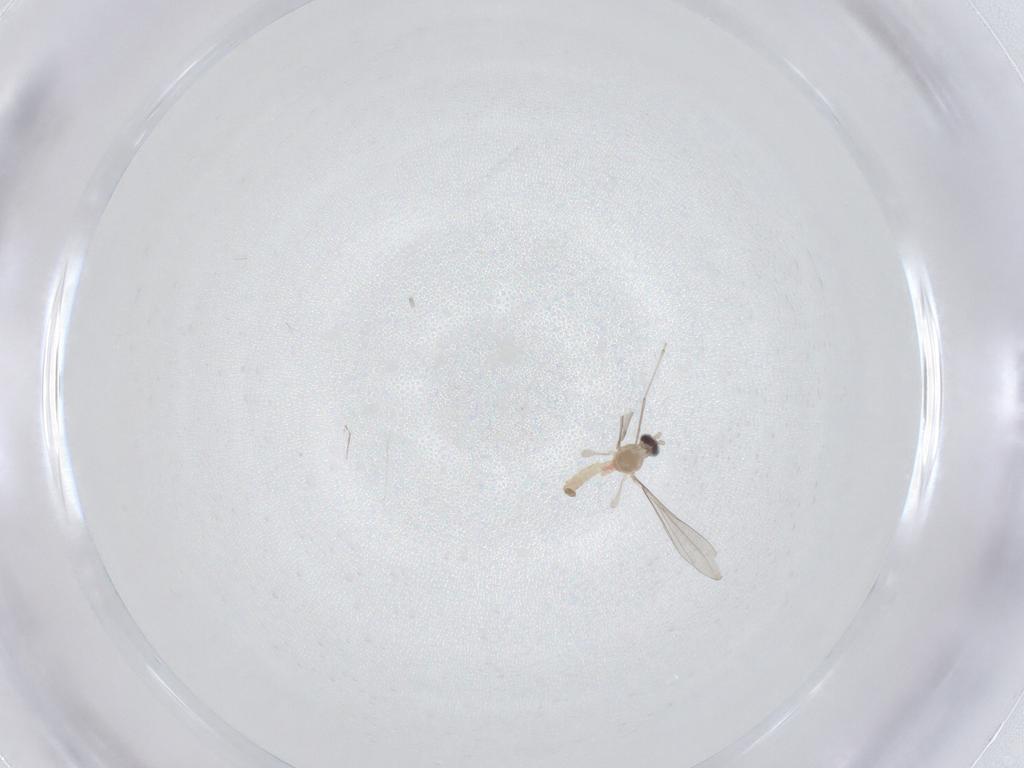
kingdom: Animalia
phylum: Arthropoda
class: Insecta
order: Diptera
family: Cecidomyiidae
